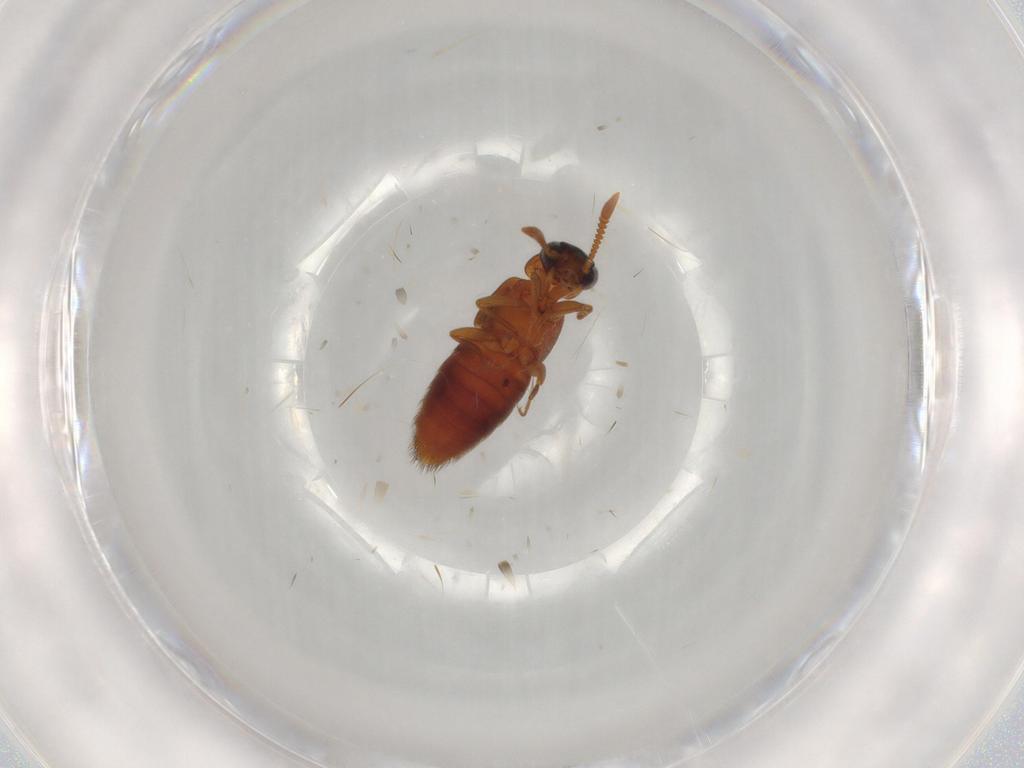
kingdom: Animalia
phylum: Arthropoda
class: Insecta
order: Coleoptera
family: Staphylinidae
